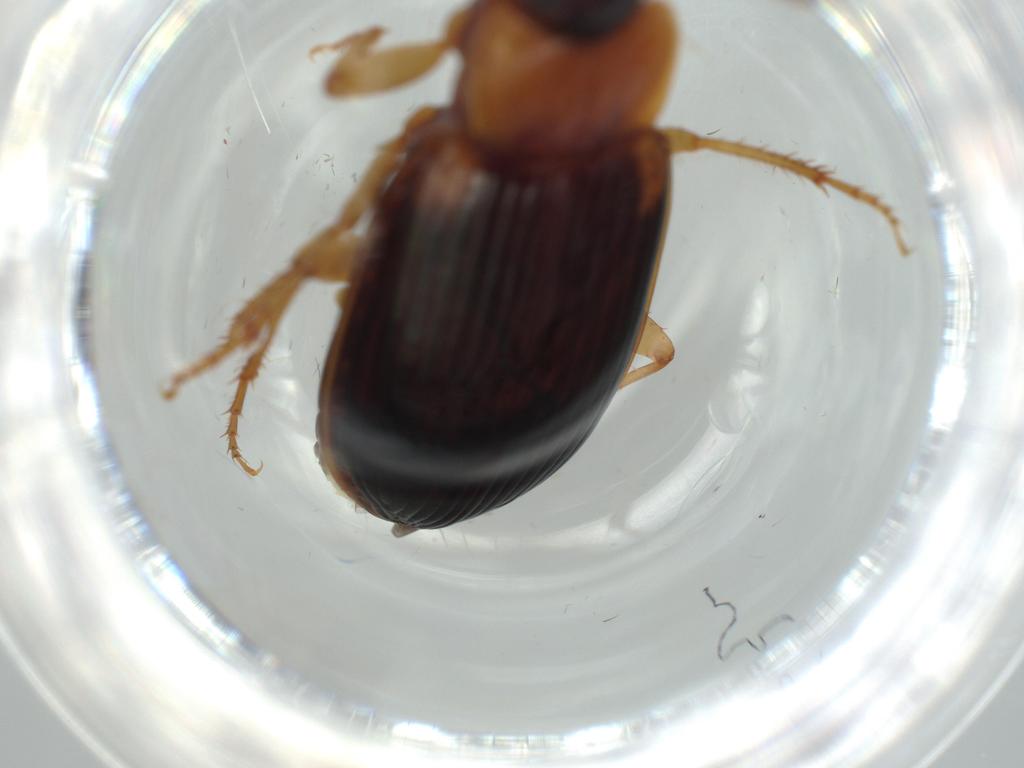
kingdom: Animalia
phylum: Arthropoda
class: Insecta
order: Coleoptera
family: Carabidae
